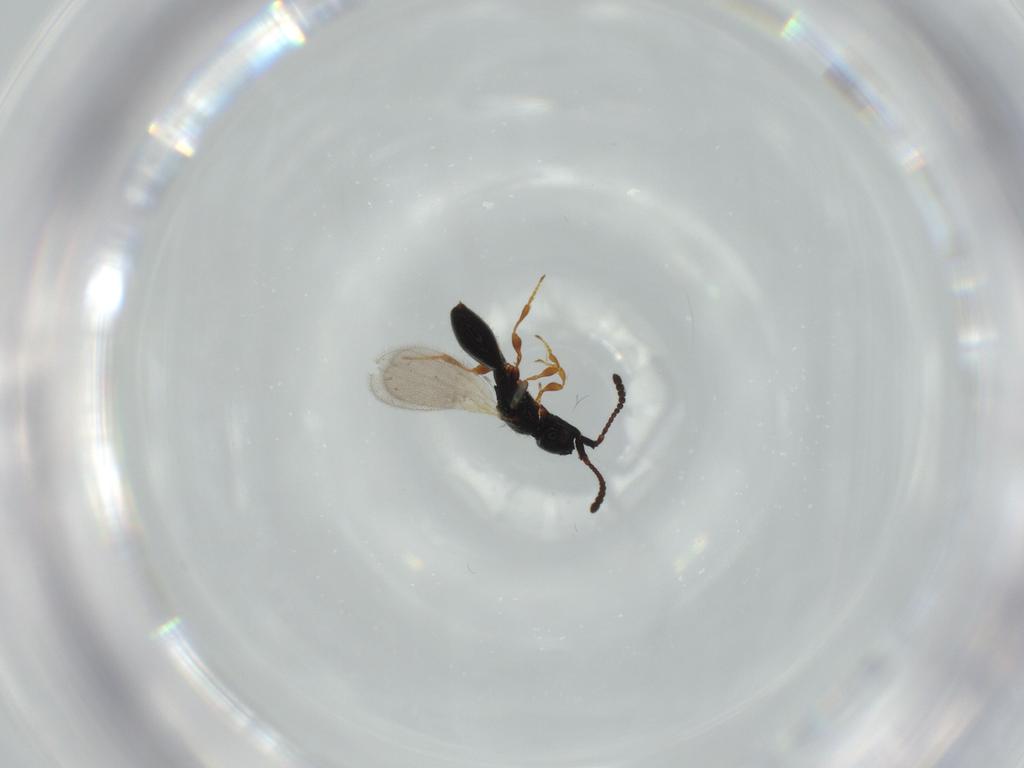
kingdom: Animalia
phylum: Arthropoda
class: Insecta
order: Hymenoptera
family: Diapriidae
